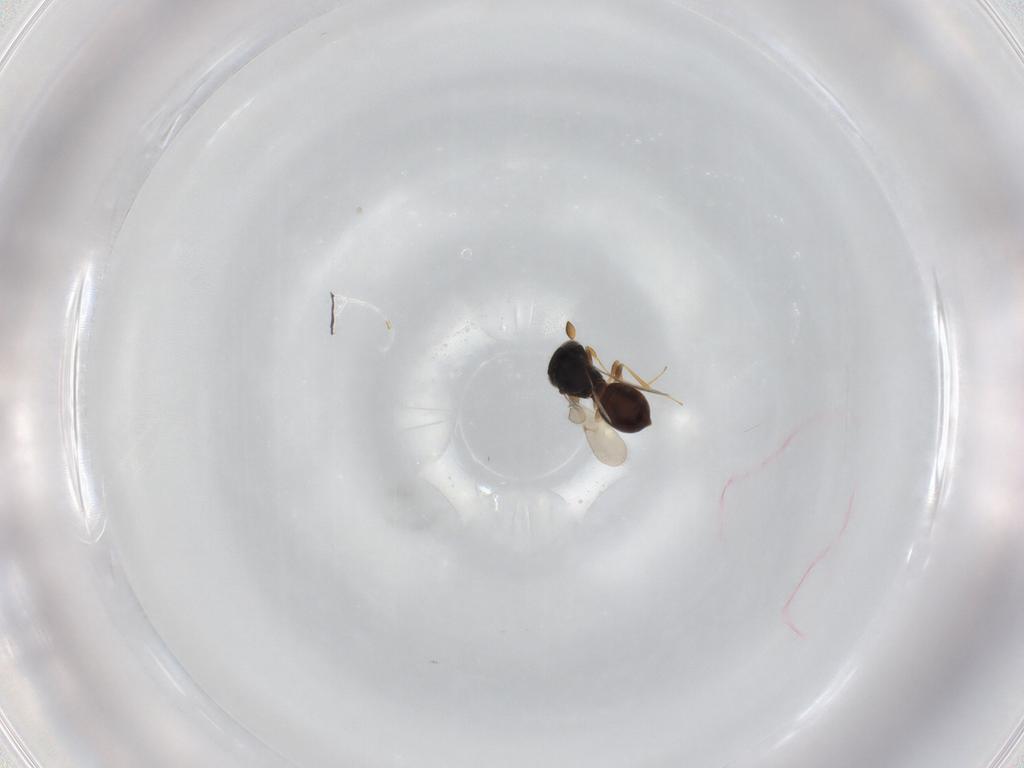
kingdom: Animalia
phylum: Arthropoda
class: Insecta
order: Hymenoptera
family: Scelionidae
